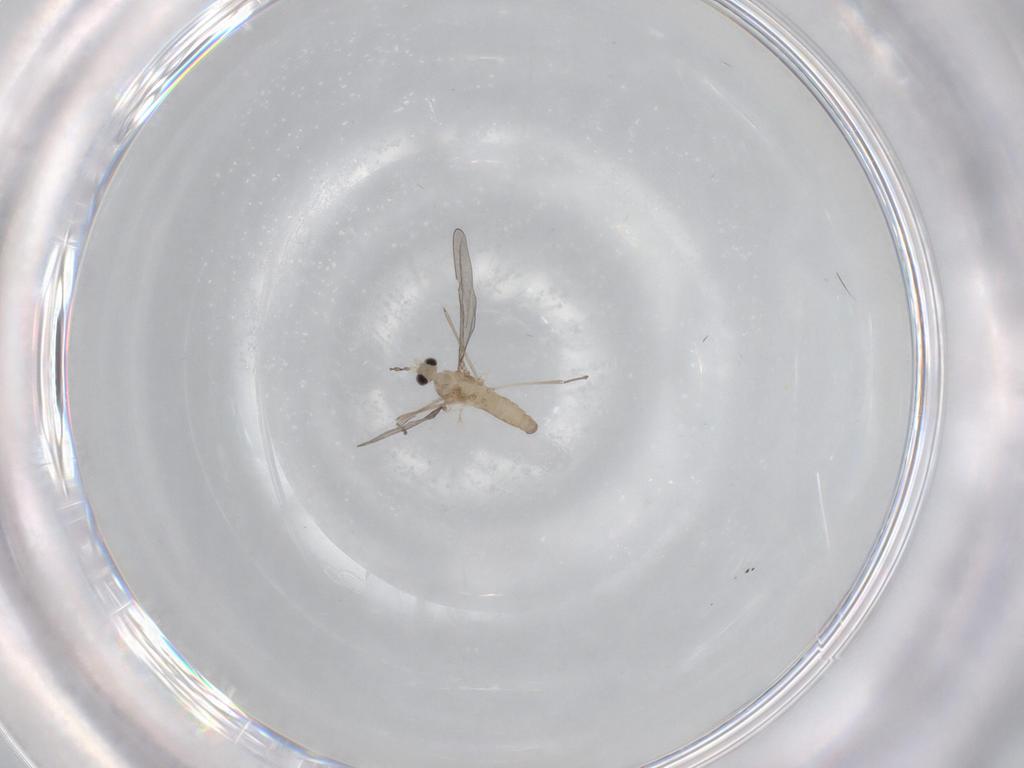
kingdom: Animalia
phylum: Arthropoda
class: Insecta
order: Diptera
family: Cecidomyiidae
